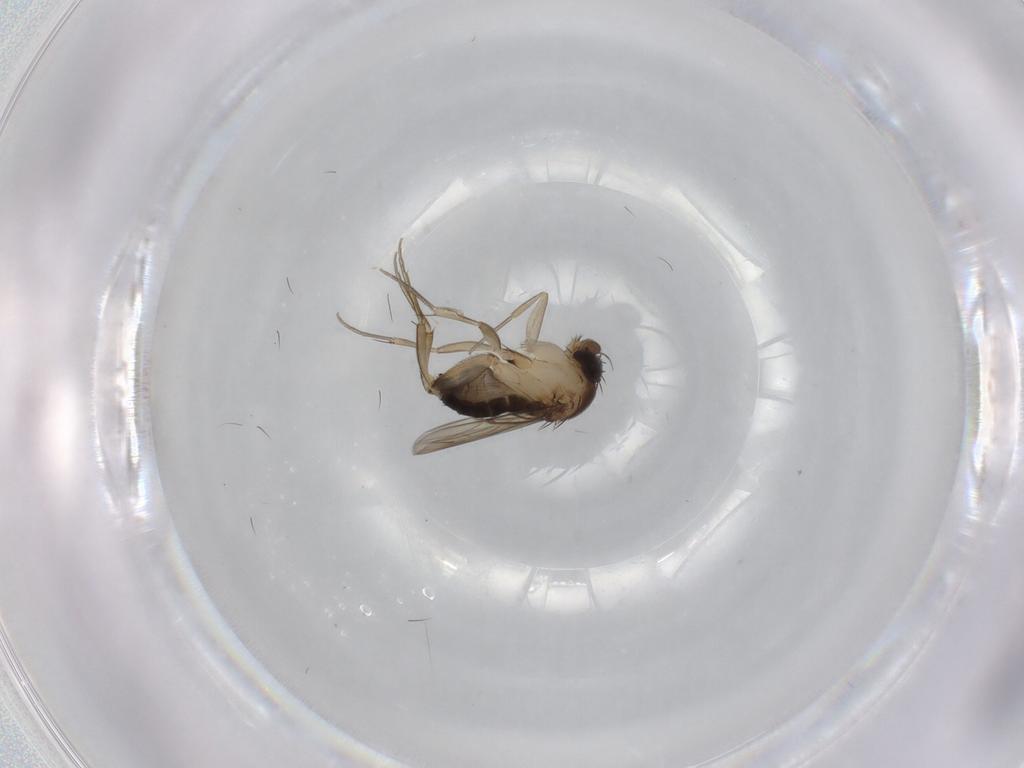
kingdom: Animalia
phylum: Arthropoda
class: Insecta
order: Diptera
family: Phoridae
